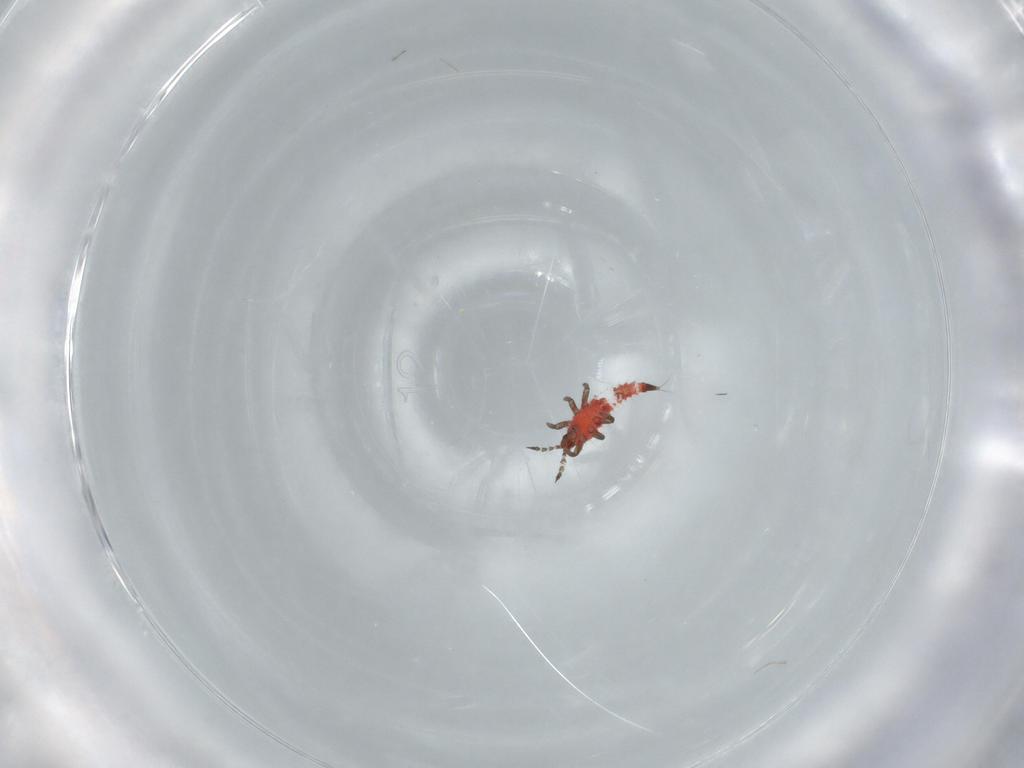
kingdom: Animalia
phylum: Arthropoda
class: Insecta
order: Thysanoptera
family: Phlaeothripidae
